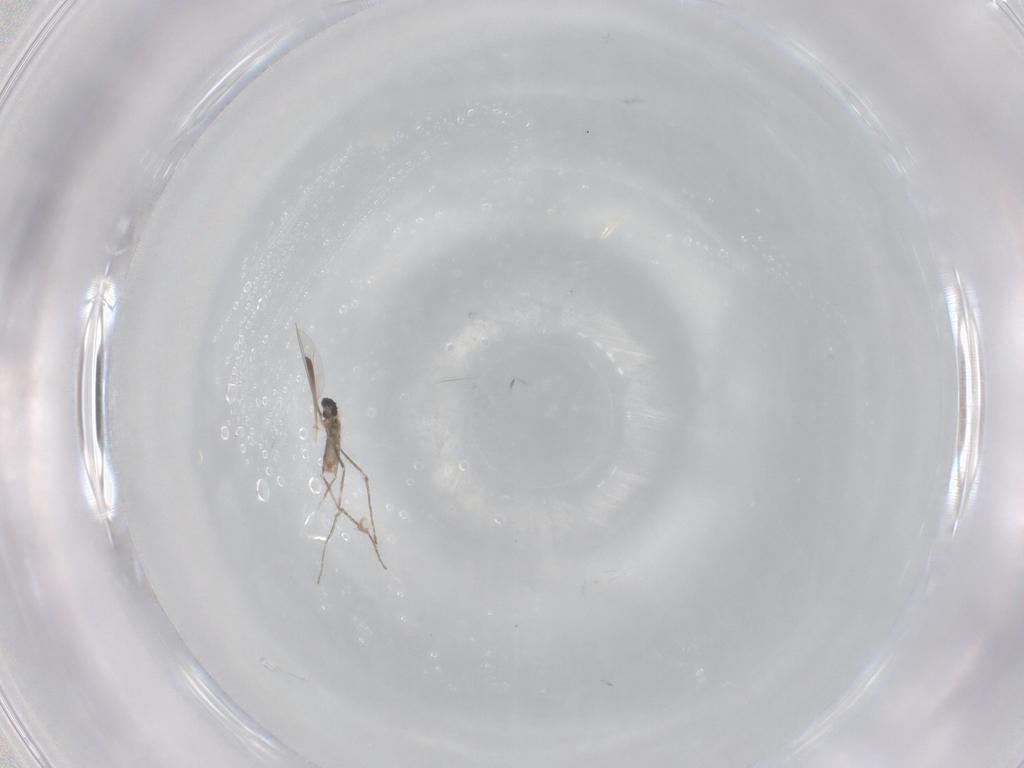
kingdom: Animalia
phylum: Arthropoda
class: Insecta
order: Diptera
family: Cecidomyiidae
